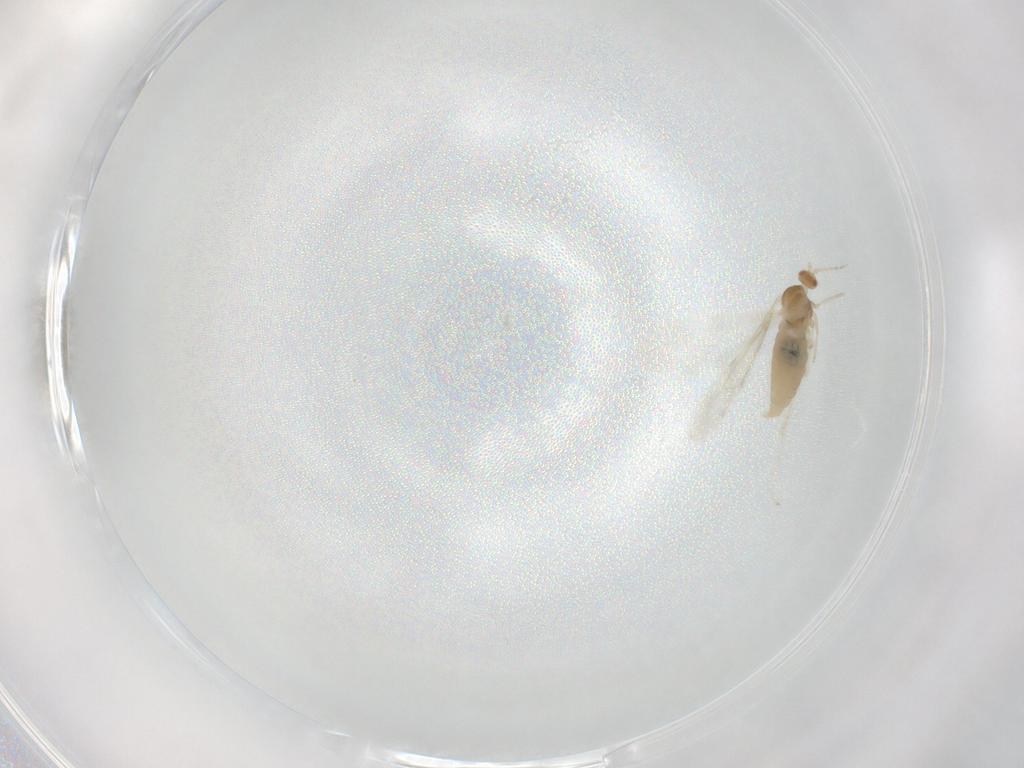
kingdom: Animalia
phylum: Arthropoda
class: Insecta
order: Diptera
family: Cecidomyiidae
